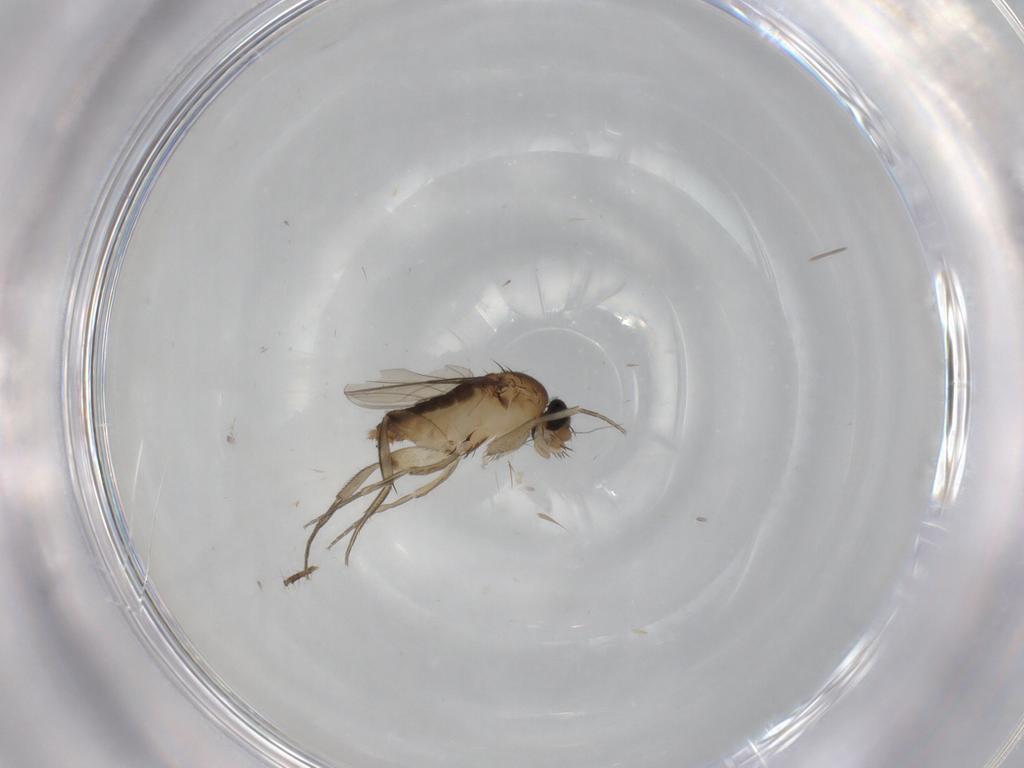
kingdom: Animalia
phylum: Arthropoda
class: Insecta
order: Diptera
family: Phoridae
